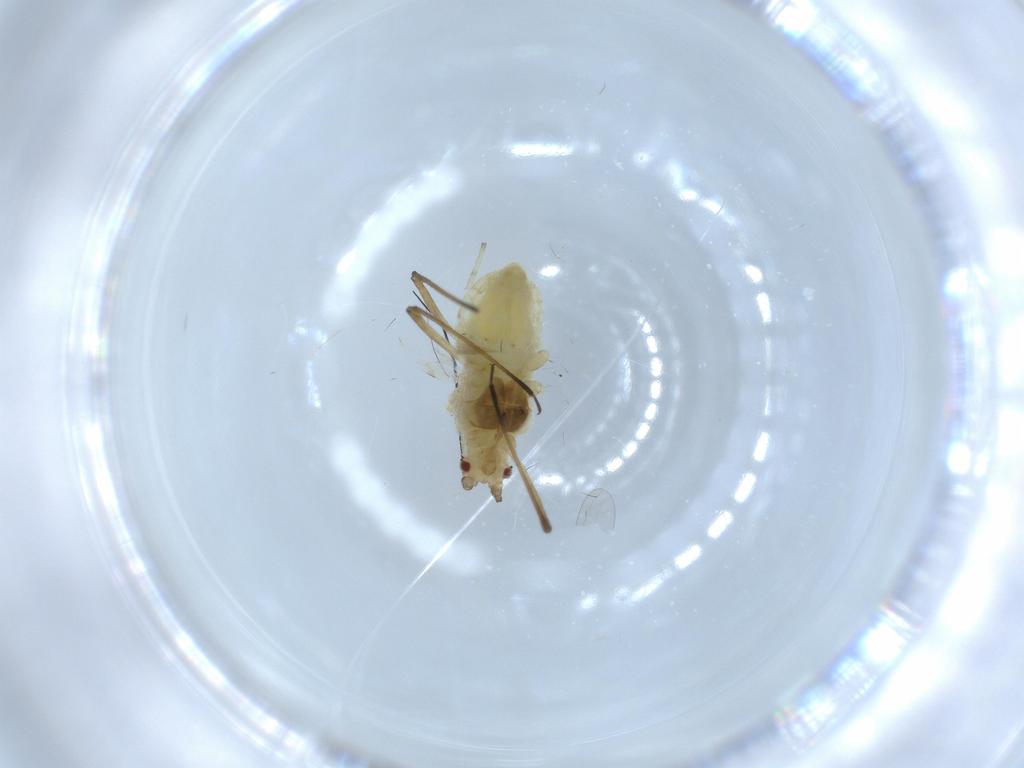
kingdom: Animalia
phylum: Arthropoda
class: Insecta
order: Hemiptera
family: Aphididae
